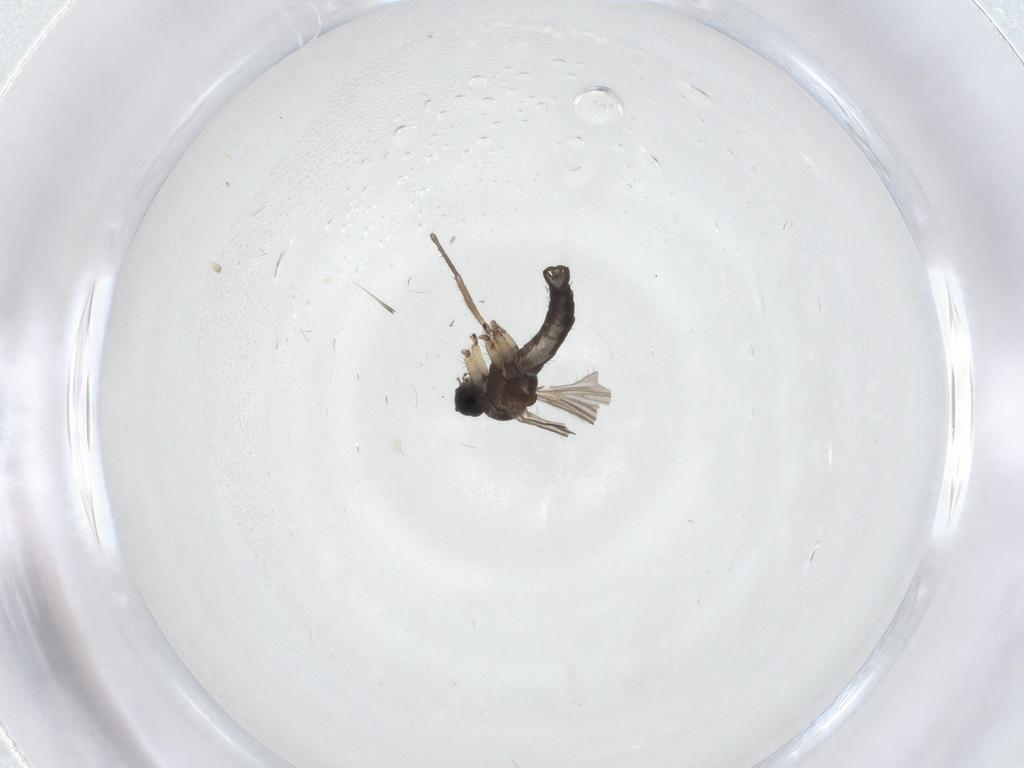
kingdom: Animalia
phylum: Arthropoda
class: Insecta
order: Diptera
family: Sciaridae
